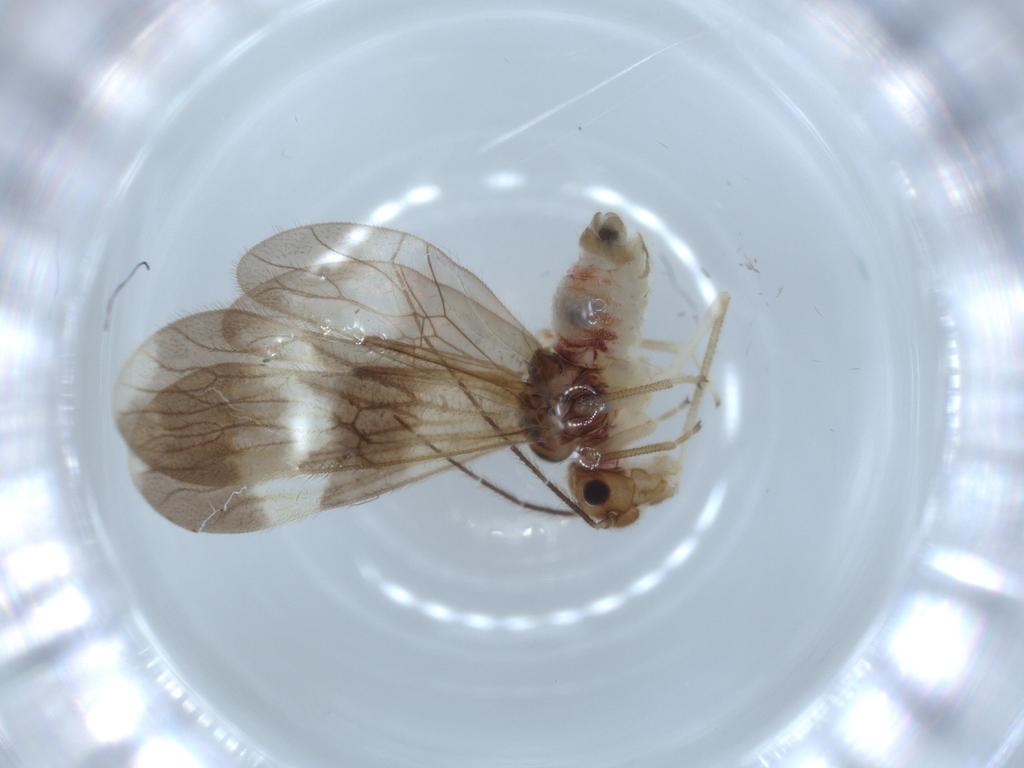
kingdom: Animalia
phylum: Arthropoda
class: Insecta
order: Psocodea
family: Amphipsocidae
